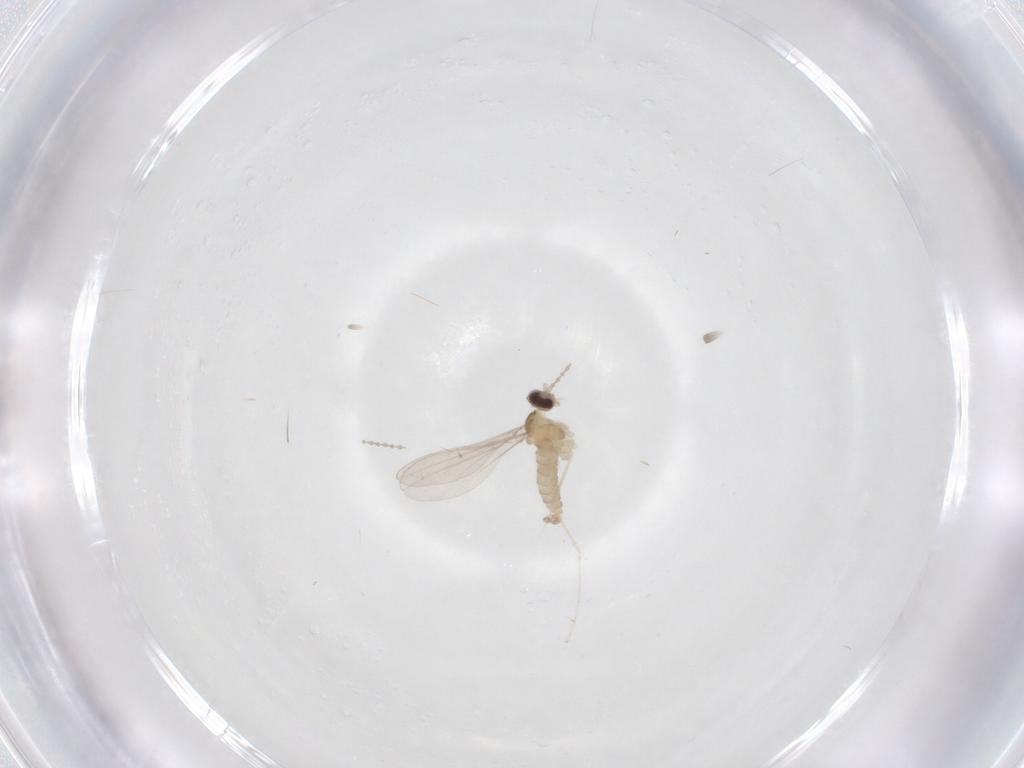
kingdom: Animalia
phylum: Arthropoda
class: Insecta
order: Diptera
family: Cecidomyiidae
